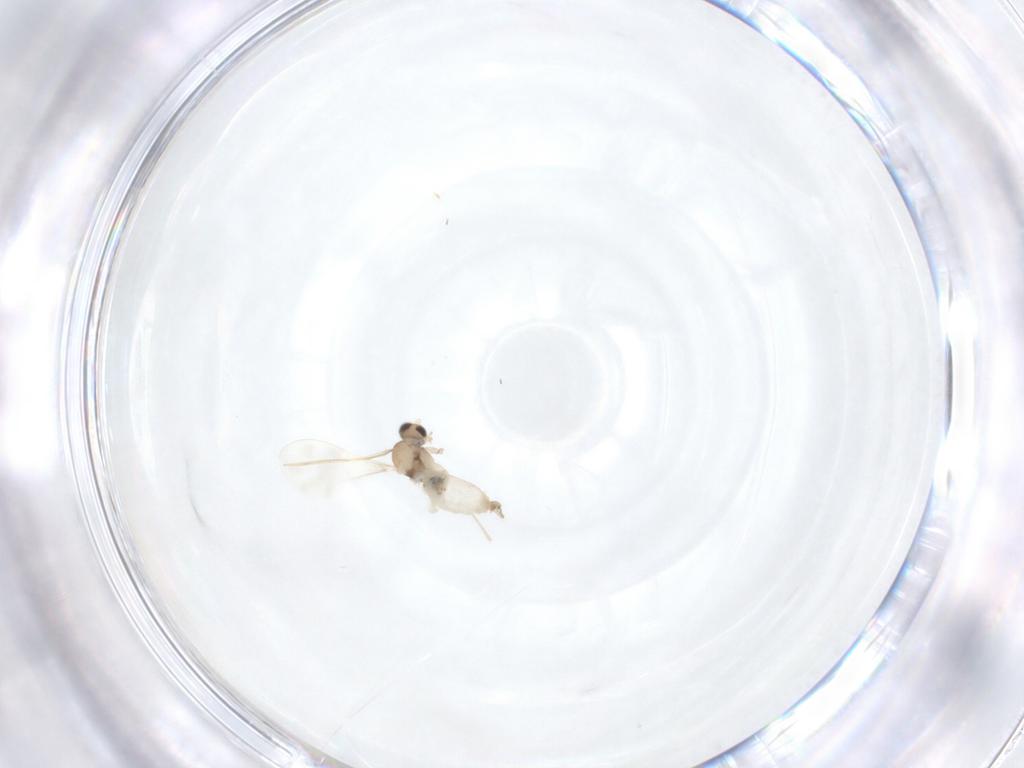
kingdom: Animalia
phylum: Arthropoda
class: Insecta
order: Diptera
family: Cecidomyiidae
